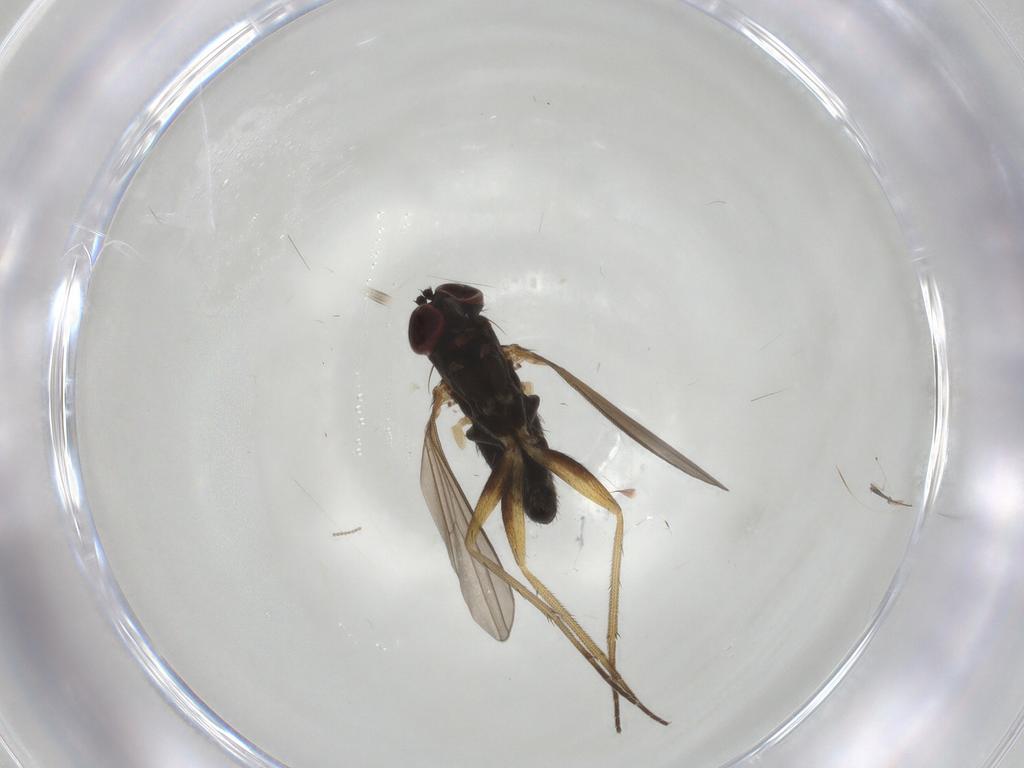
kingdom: Animalia
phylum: Arthropoda
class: Insecta
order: Diptera
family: Dolichopodidae
